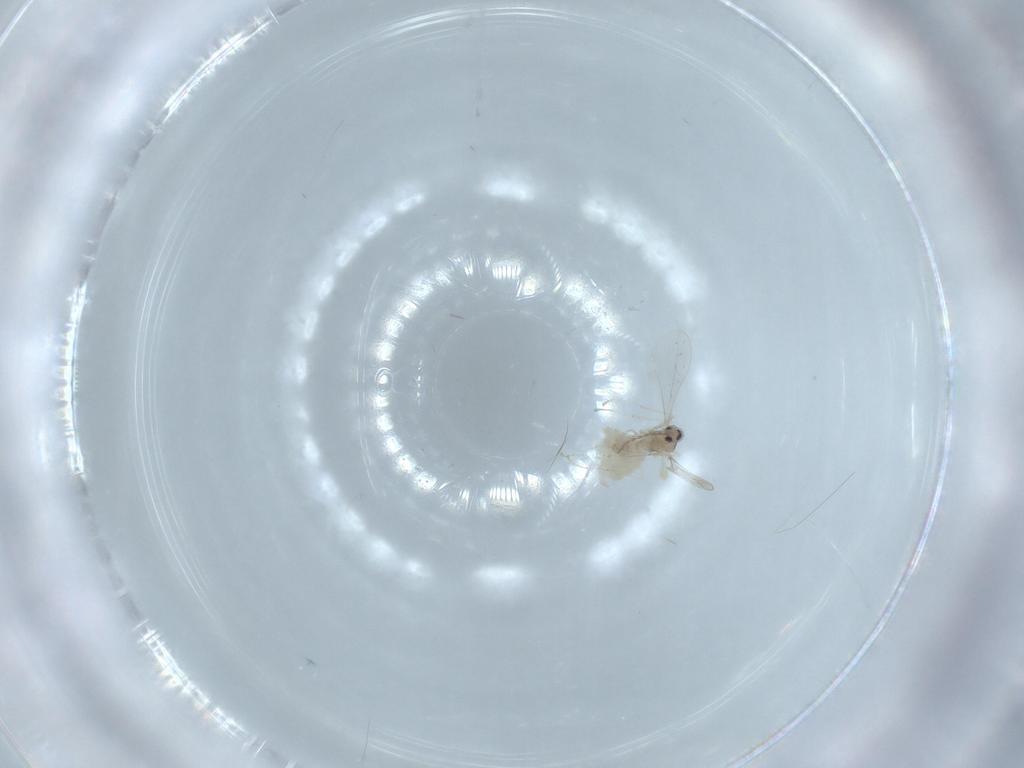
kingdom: Animalia
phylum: Arthropoda
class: Insecta
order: Diptera
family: Cecidomyiidae
